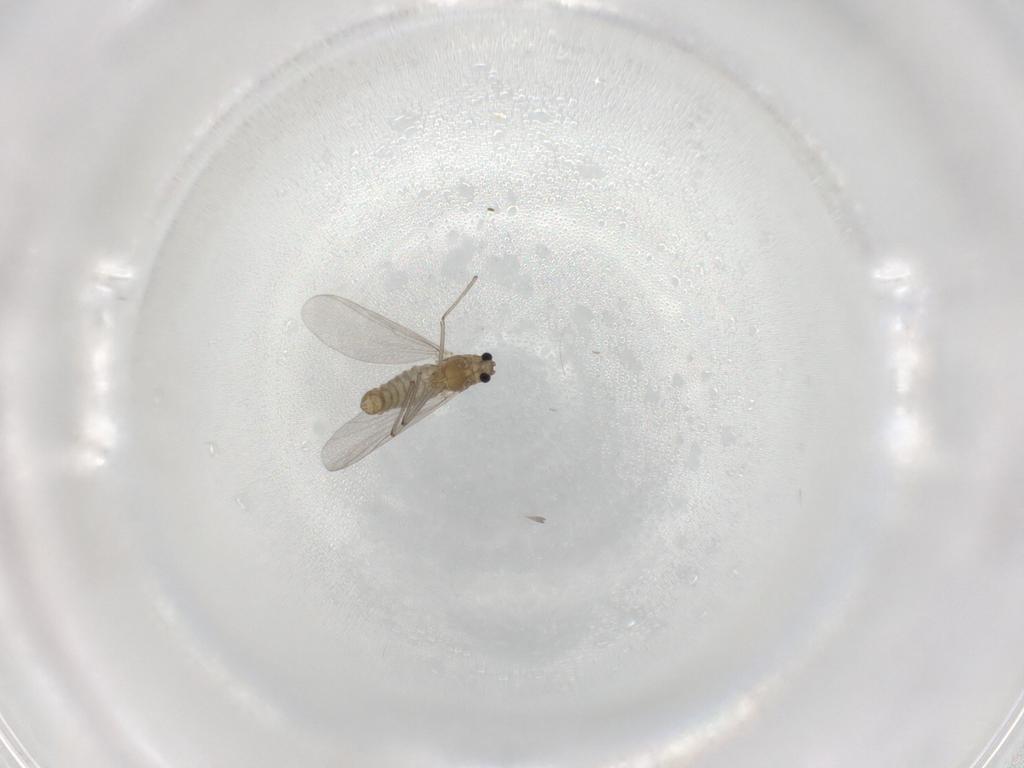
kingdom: Animalia
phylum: Arthropoda
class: Insecta
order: Diptera
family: Chironomidae
